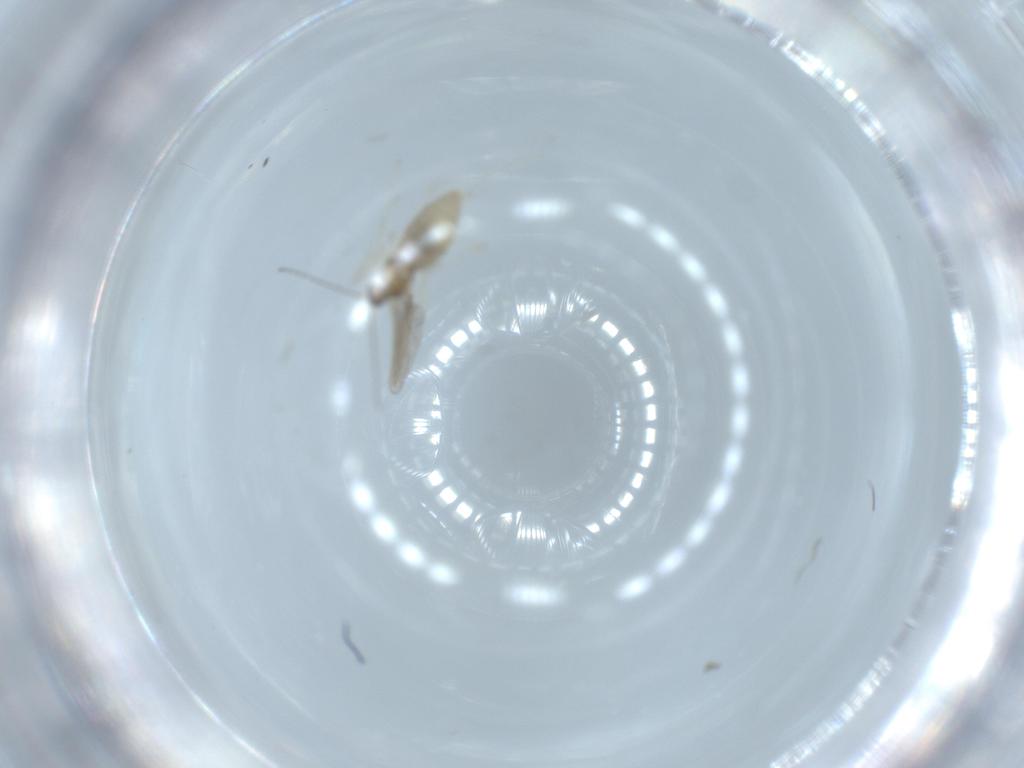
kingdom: Animalia
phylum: Arthropoda
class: Insecta
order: Diptera
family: Cecidomyiidae
